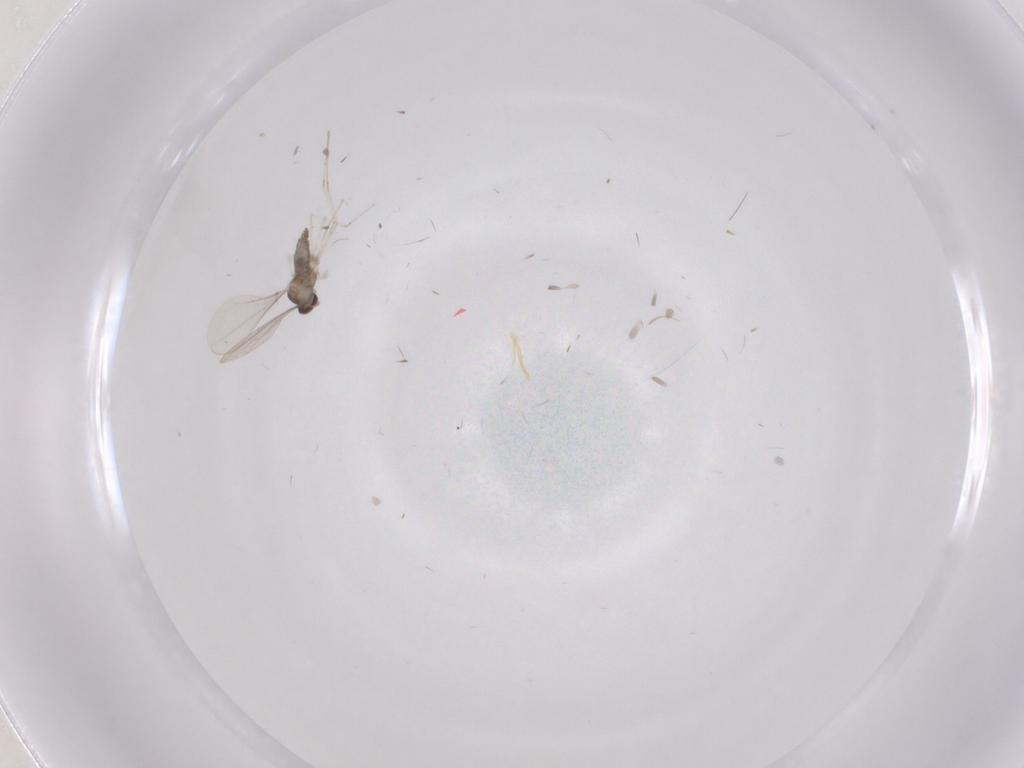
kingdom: Animalia
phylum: Arthropoda
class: Insecta
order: Diptera
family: Cecidomyiidae
